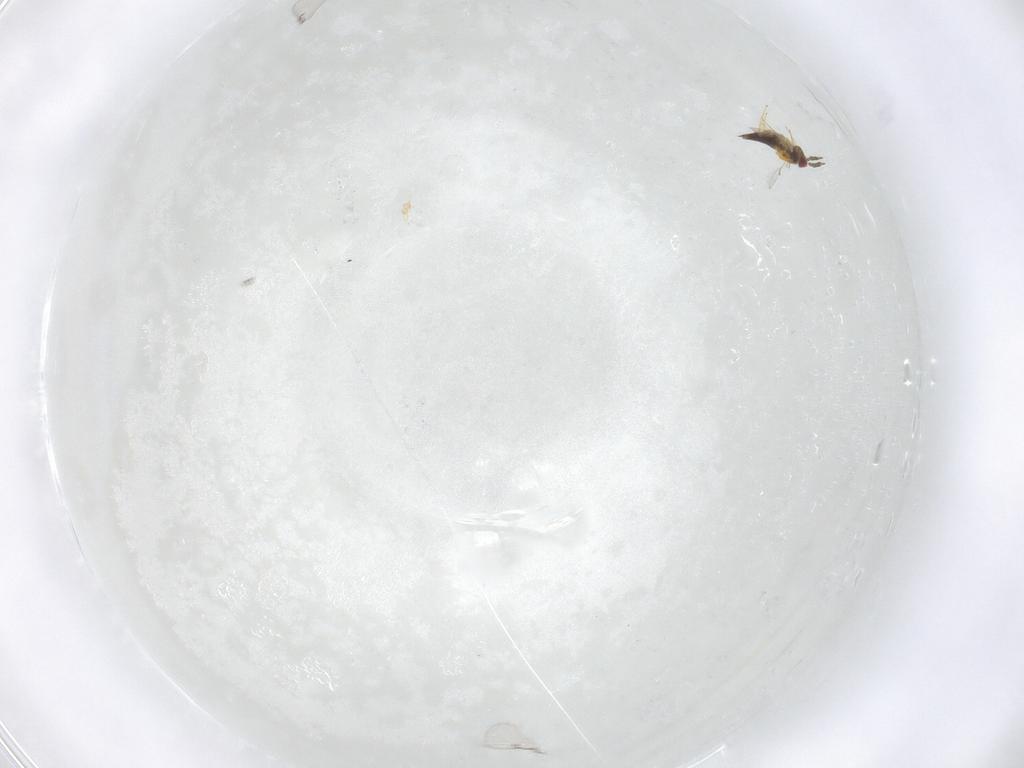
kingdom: Animalia
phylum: Arthropoda
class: Insecta
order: Hymenoptera
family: Trichogrammatidae
